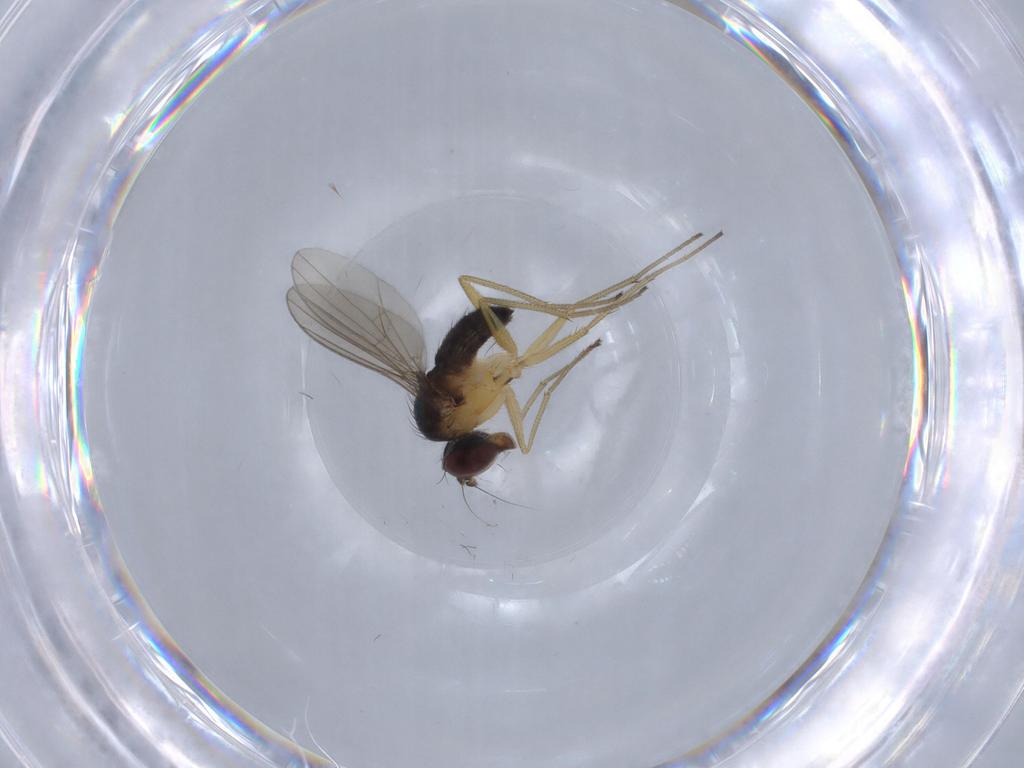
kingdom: Animalia
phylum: Arthropoda
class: Insecta
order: Diptera
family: Dolichopodidae
